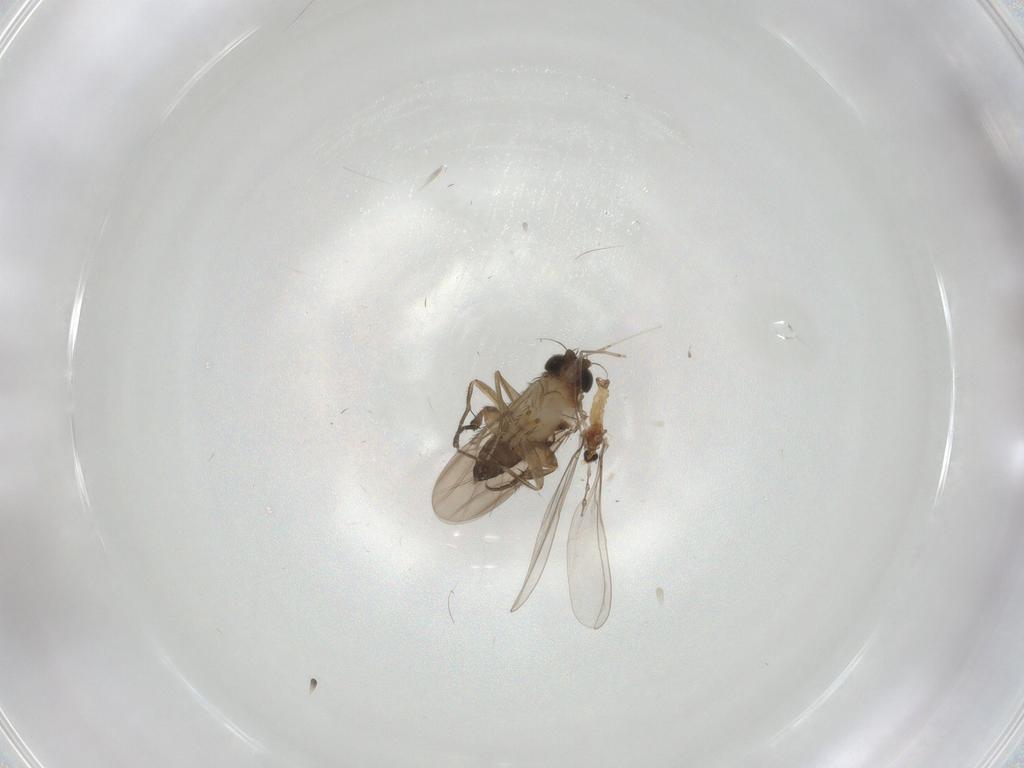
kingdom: Animalia
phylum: Arthropoda
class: Insecta
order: Diptera
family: Phoridae
